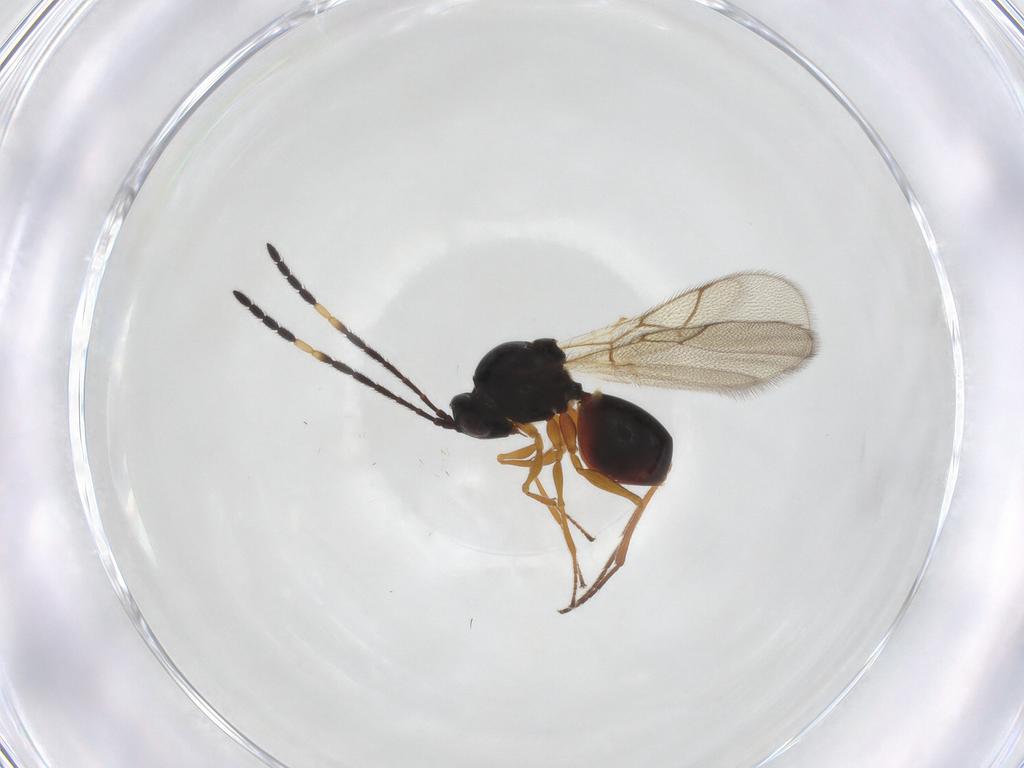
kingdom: Animalia
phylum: Arthropoda
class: Insecta
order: Hymenoptera
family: Figitidae
